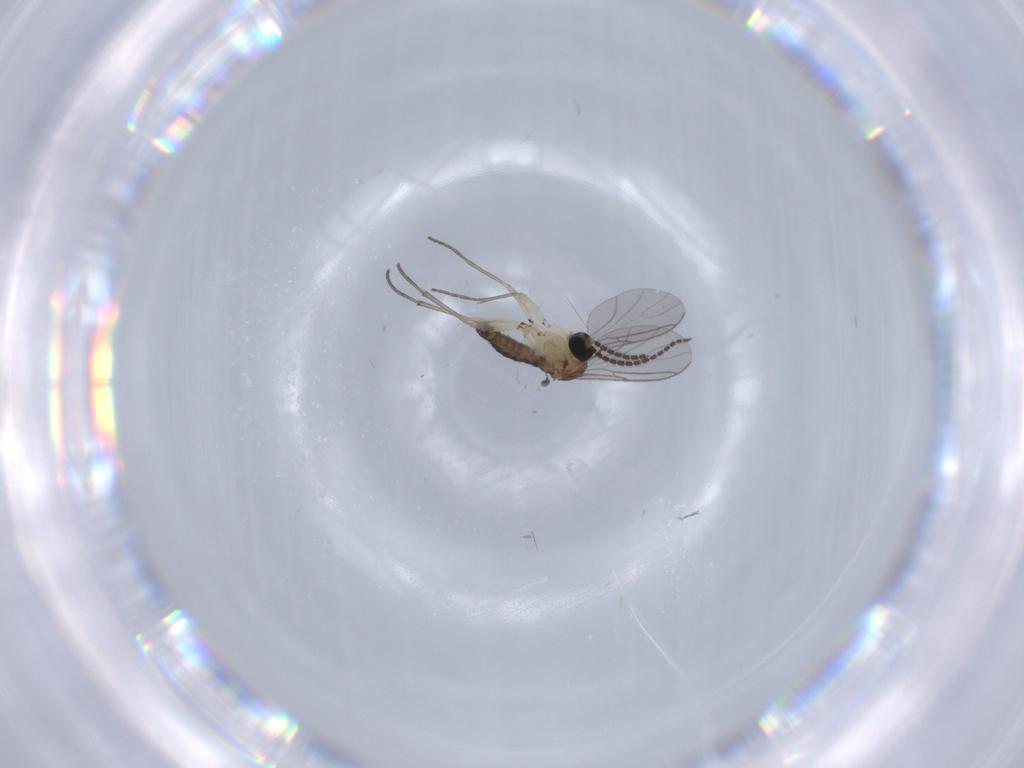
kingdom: Animalia
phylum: Arthropoda
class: Insecta
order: Diptera
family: Sciaridae
